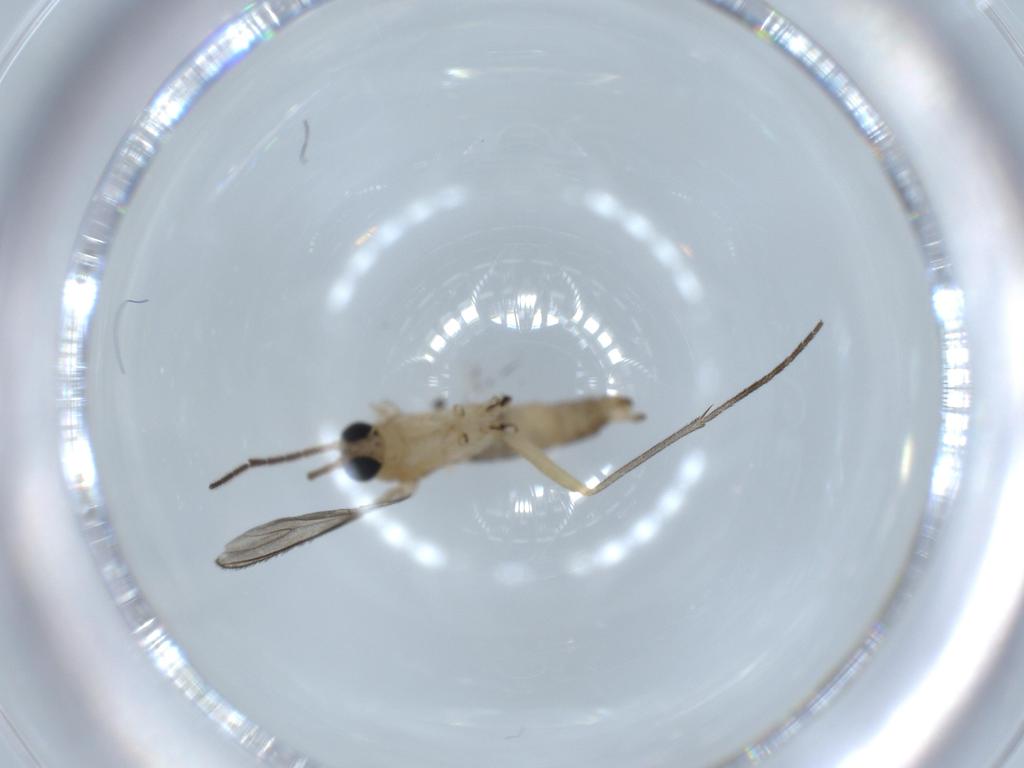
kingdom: Animalia
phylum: Arthropoda
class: Insecta
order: Diptera
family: Sciaridae
